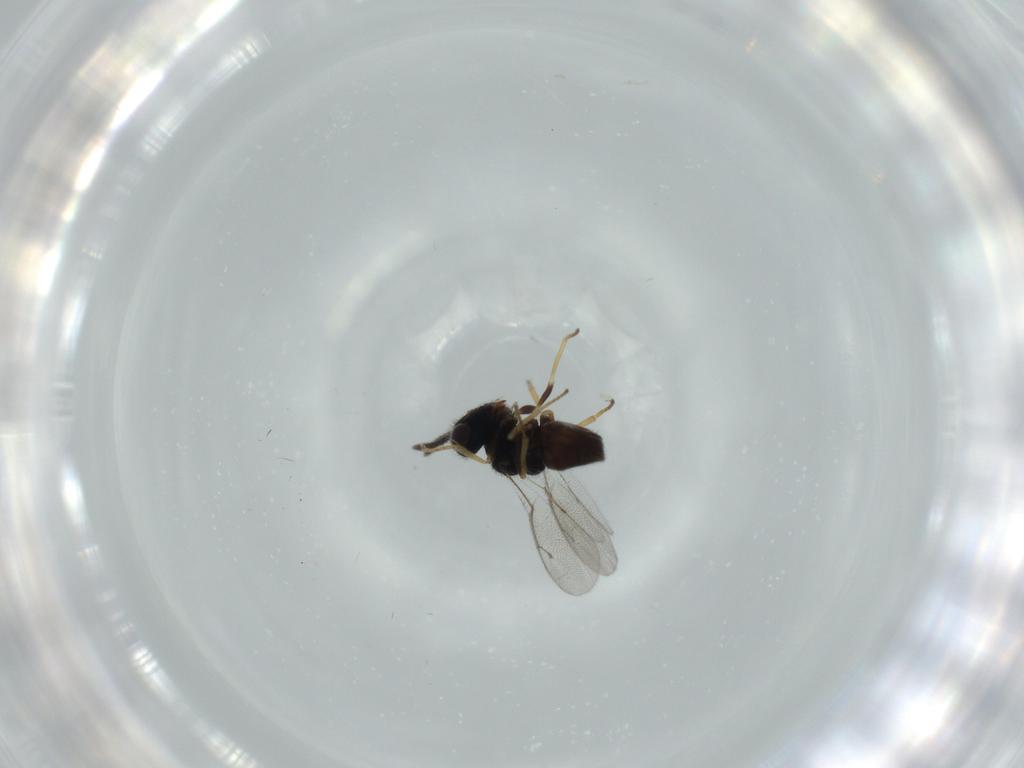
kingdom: Animalia
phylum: Arthropoda
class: Insecta
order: Hymenoptera
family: Pteromalidae
